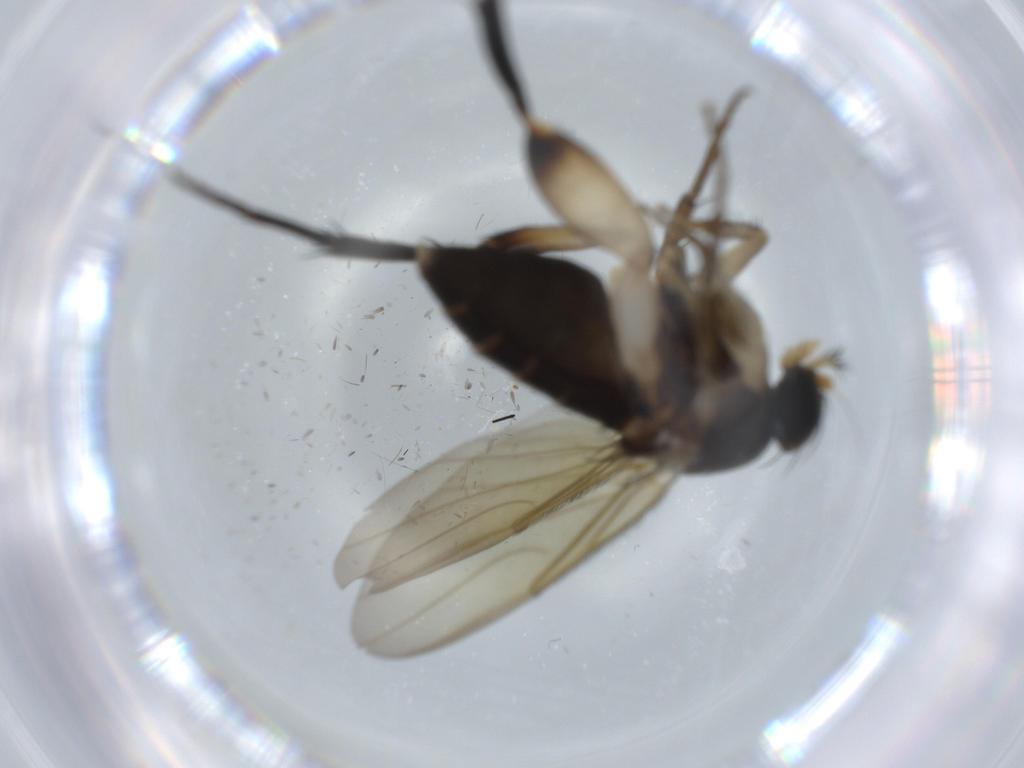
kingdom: Animalia
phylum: Arthropoda
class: Insecta
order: Diptera
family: Phoridae
